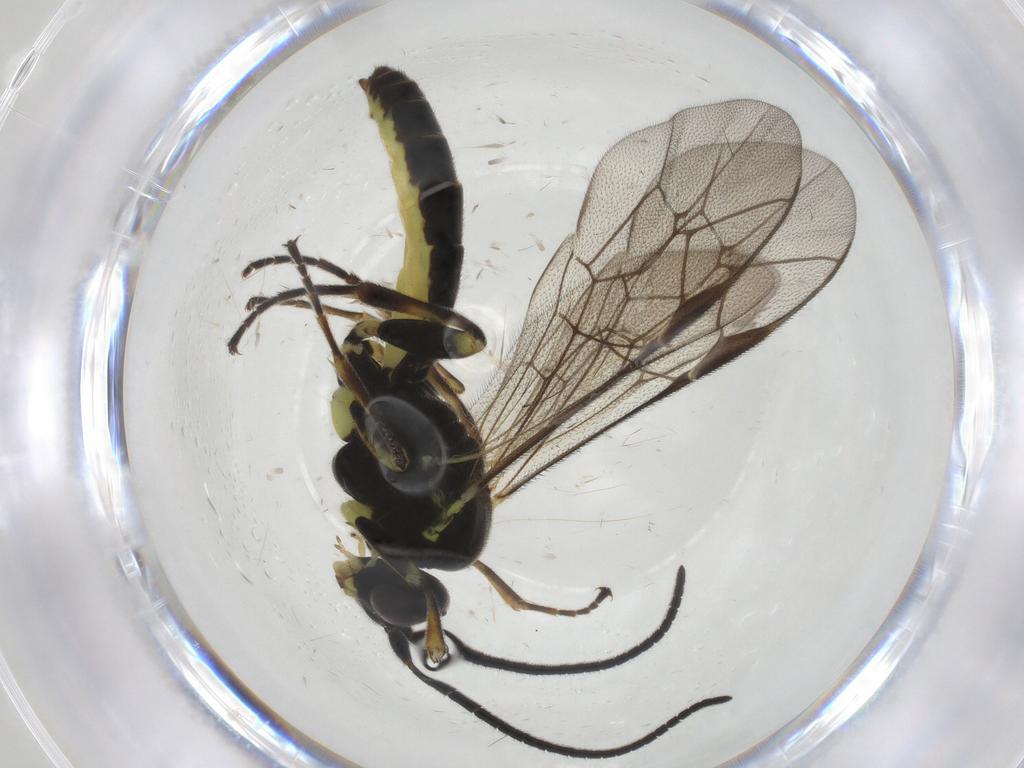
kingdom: Animalia
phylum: Arthropoda
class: Insecta
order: Hymenoptera
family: Ichneumonidae
